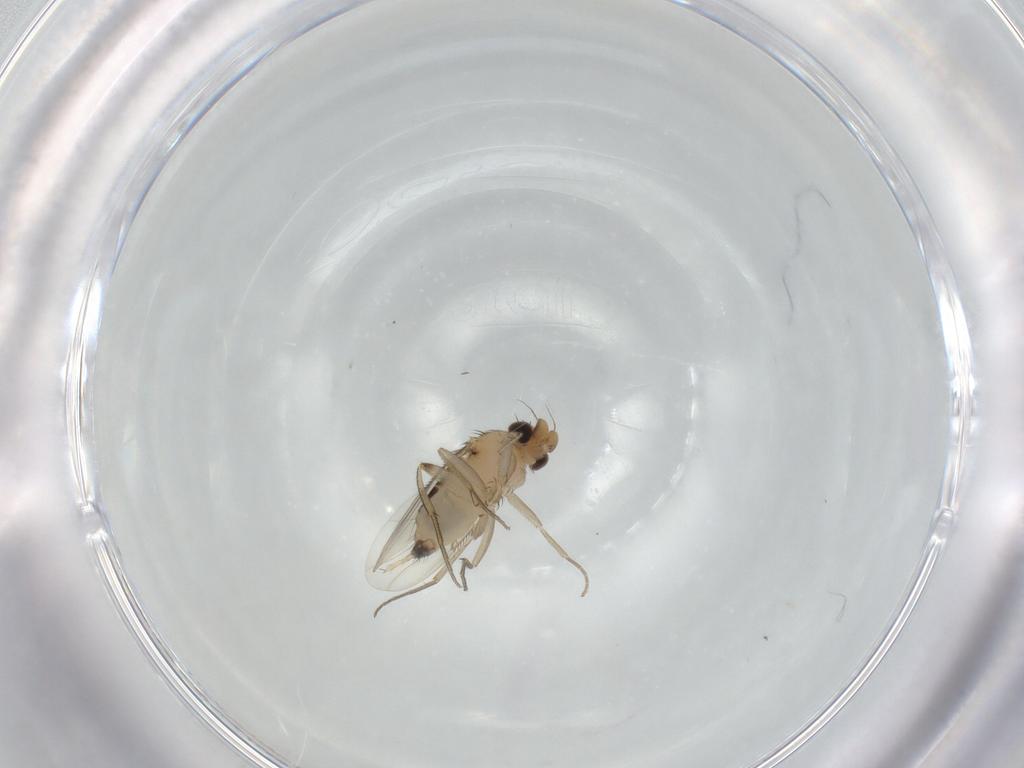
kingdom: Animalia
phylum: Arthropoda
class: Insecta
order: Diptera
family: Phoridae
